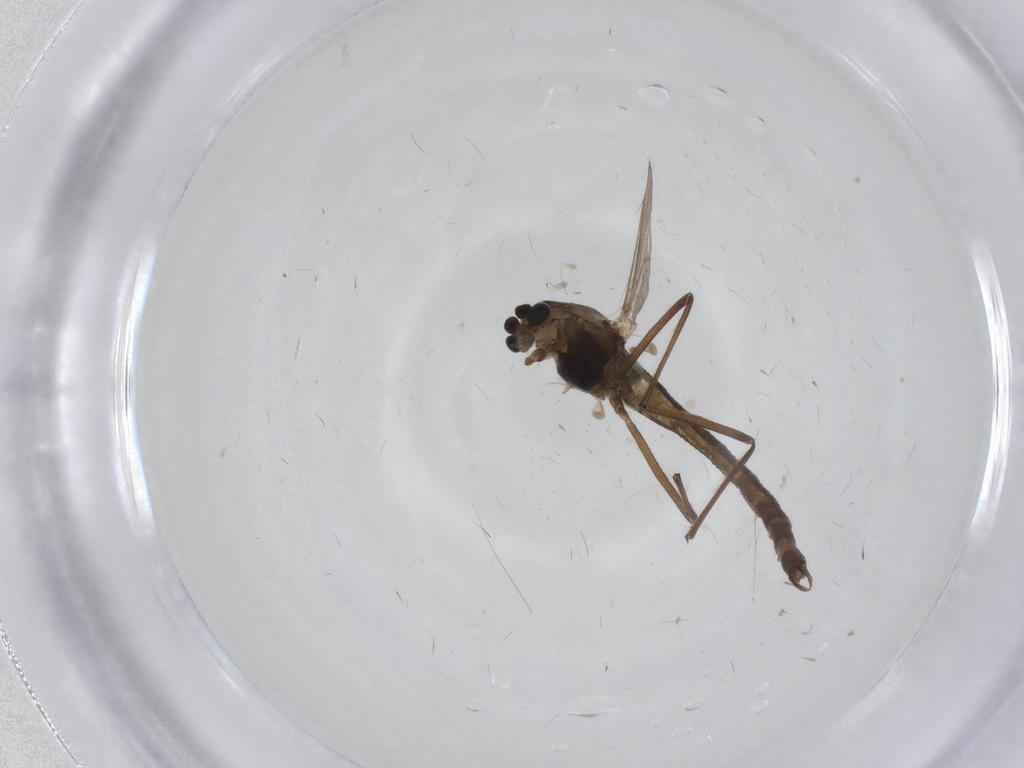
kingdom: Animalia
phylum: Arthropoda
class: Insecta
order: Diptera
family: Chironomidae
